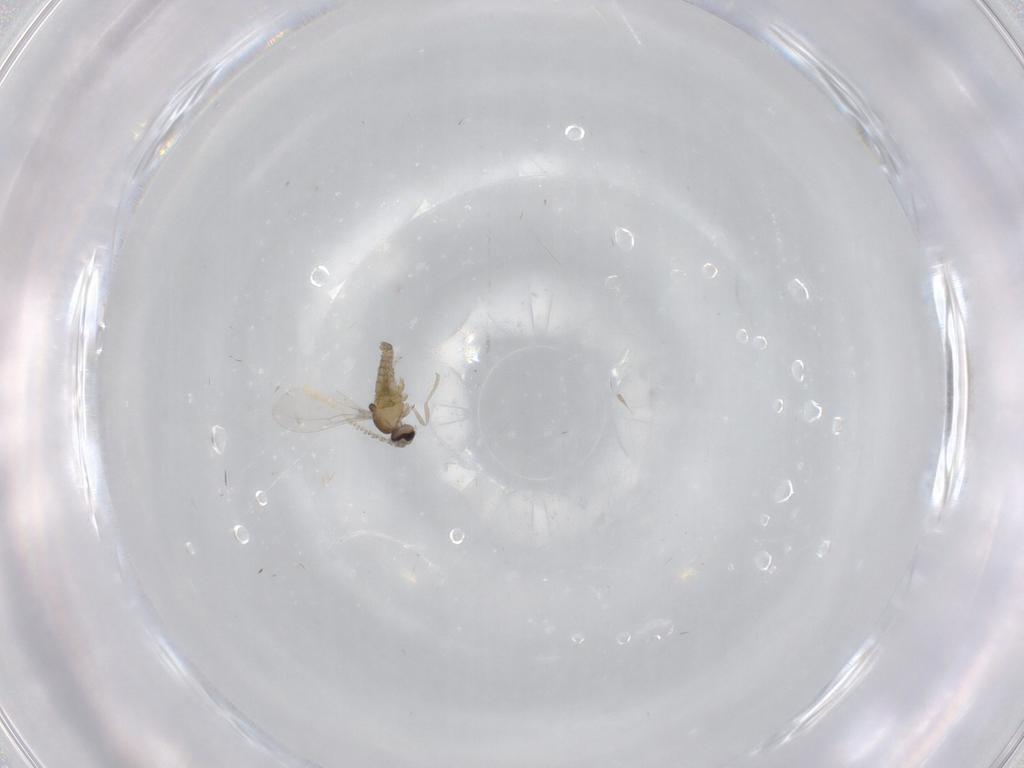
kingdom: Animalia
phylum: Arthropoda
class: Insecta
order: Diptera
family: Cecidomyiidae
